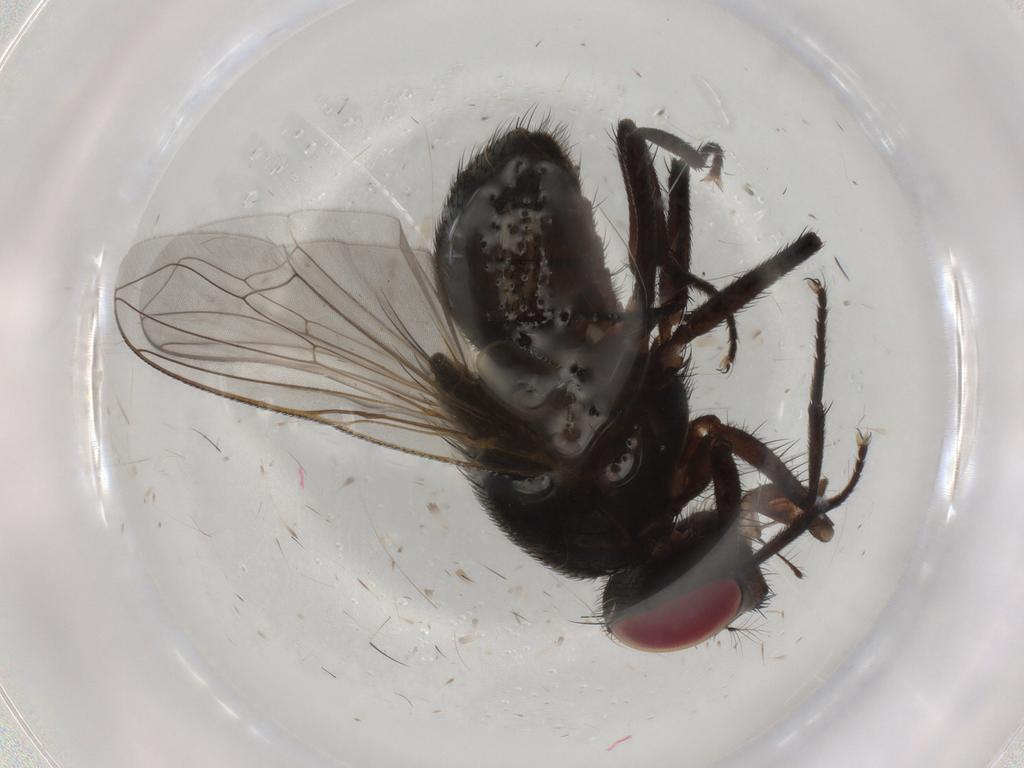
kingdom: Animalia
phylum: Arthropoda
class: Insecta
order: Diptera
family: Muscidae
